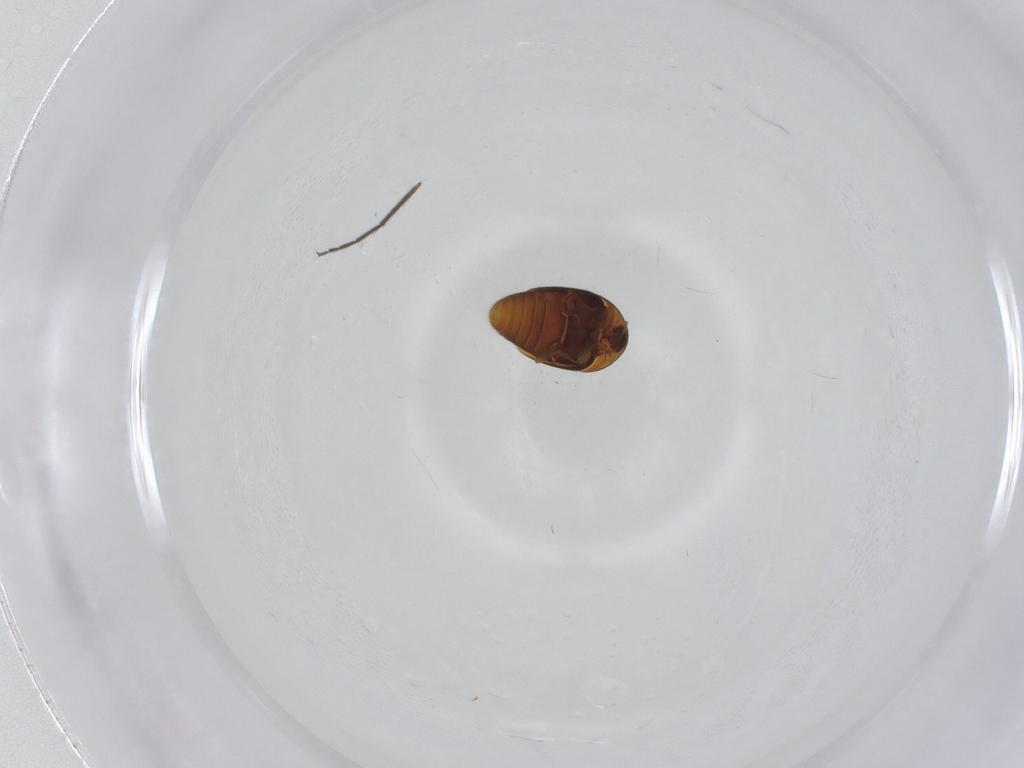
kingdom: Animalia
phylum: Arthropoda
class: Insecta
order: Coleoptera
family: Corylophidae
